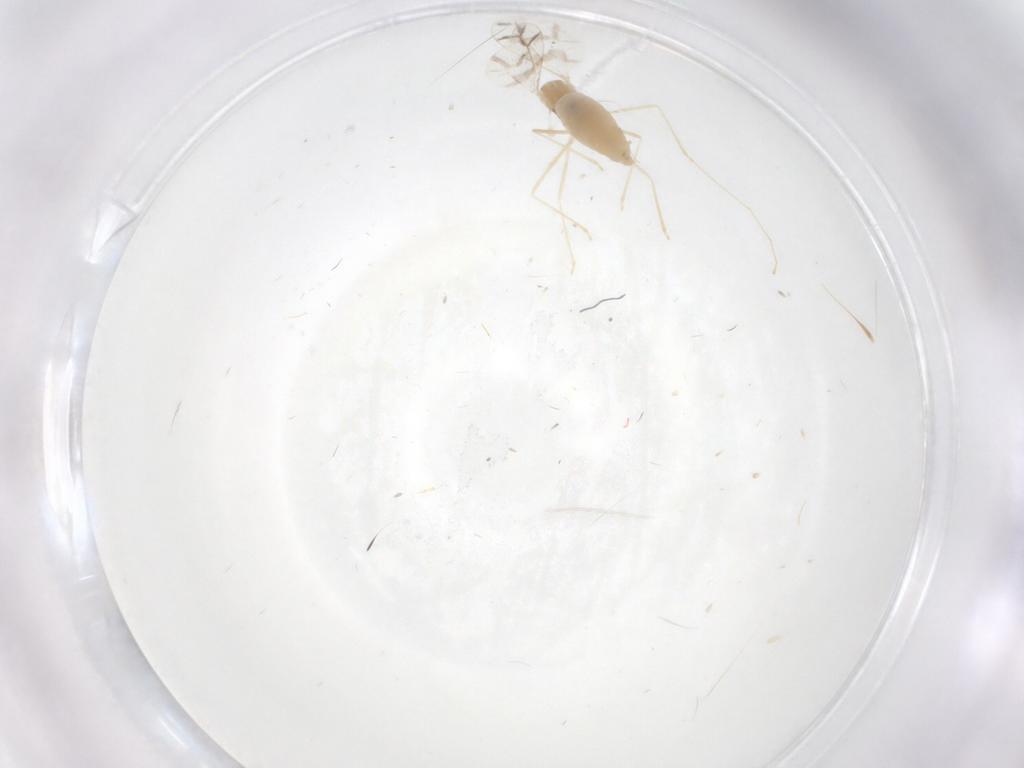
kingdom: Animalia
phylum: Arthropoda
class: Insecta
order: Diptera
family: Cecidomyiidae
